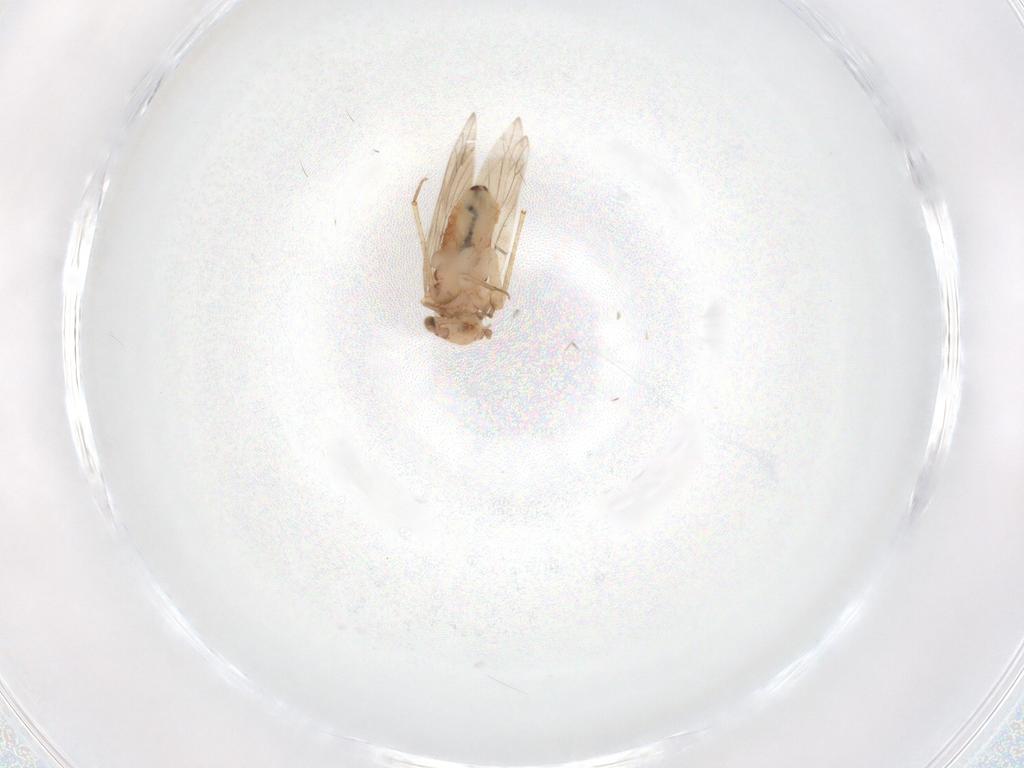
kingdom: Animalia
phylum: Arthropoda
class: Insecta
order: Psocodea
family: Lepidopsocidae
